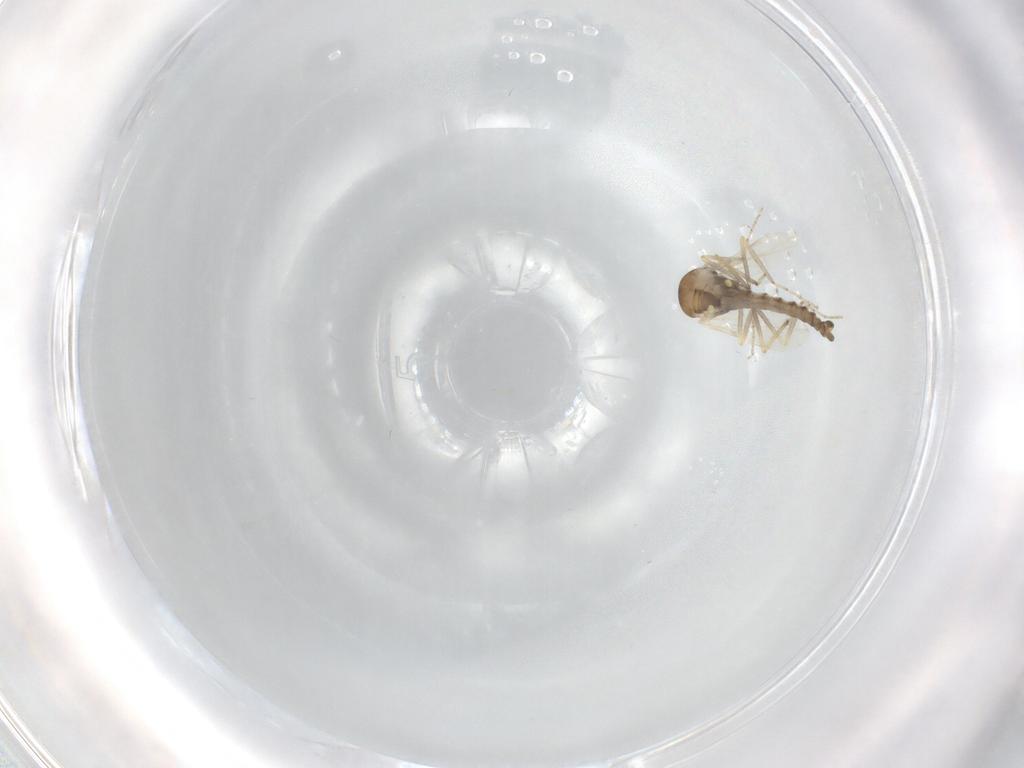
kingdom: Animalia
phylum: Arthropoda
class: Insecta
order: Diptera
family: Ceratopogonidae
